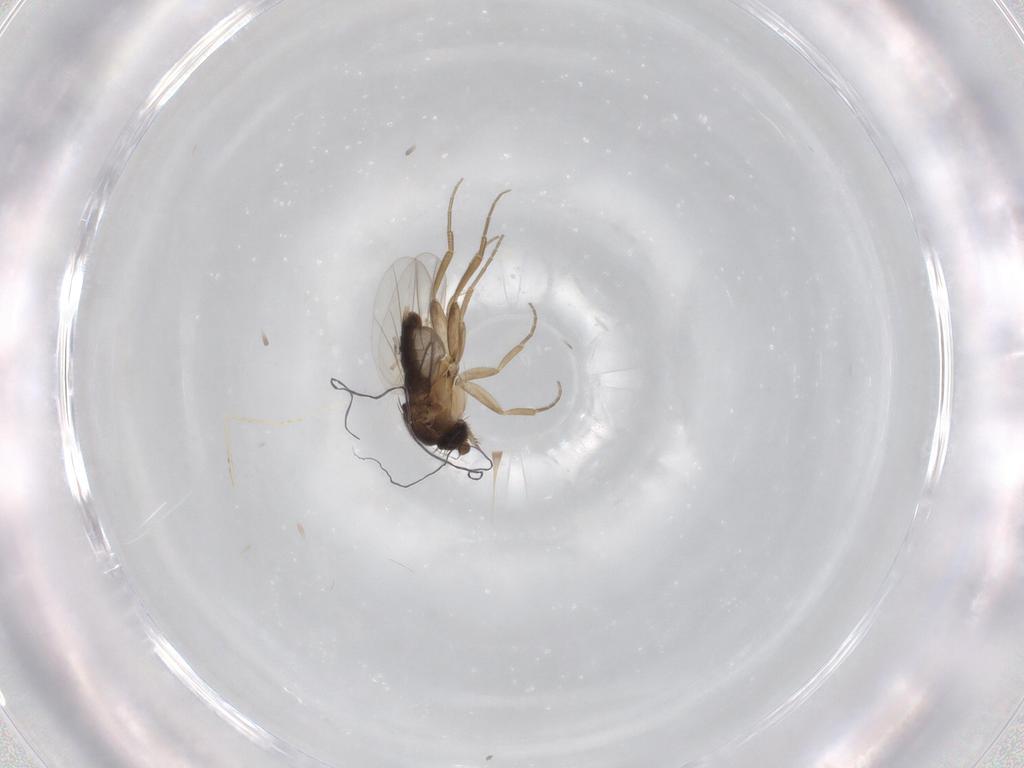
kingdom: Animalia
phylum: Arthropoda
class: Insecta
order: Diptera
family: Phoridae
